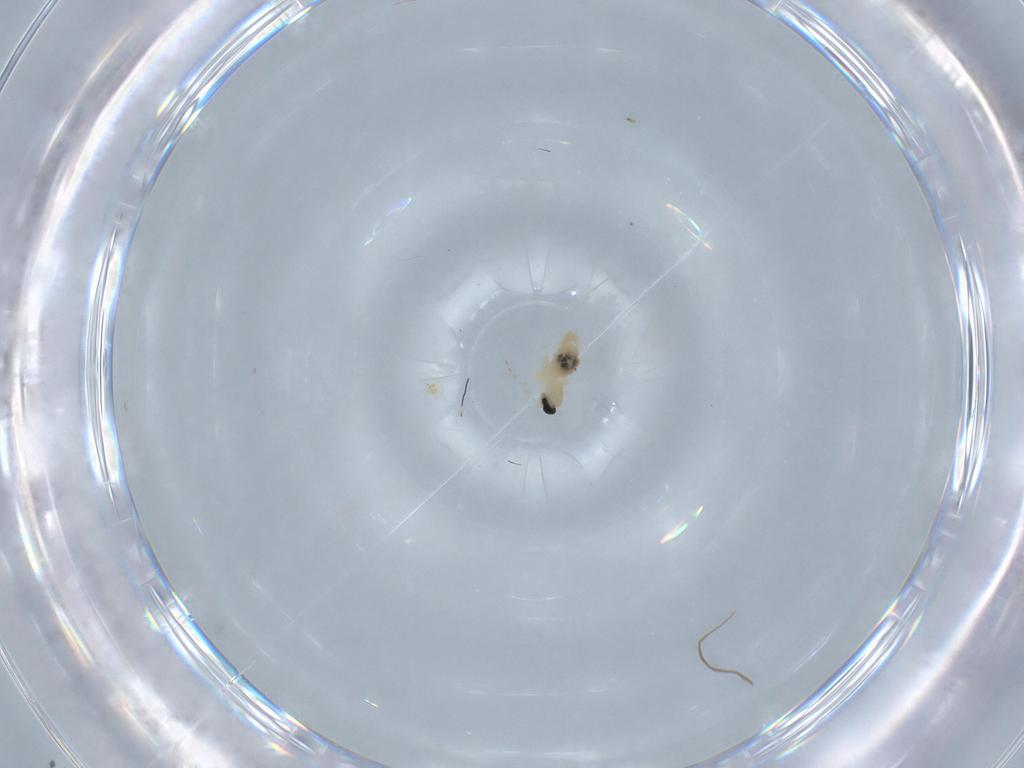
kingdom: Animalia
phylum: Arthropoda
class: Insecta
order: Diptera
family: Cecidomyiidae
